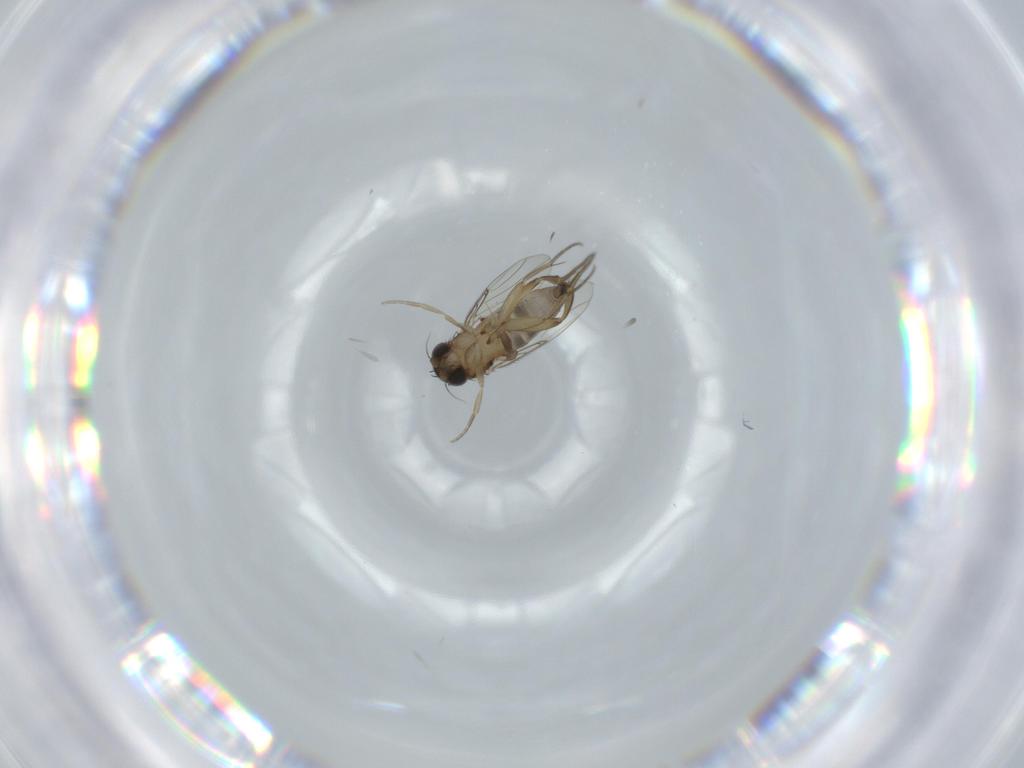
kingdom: Animalia
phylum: Arthropoda
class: Insecta
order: Diptera
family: Phoridae
